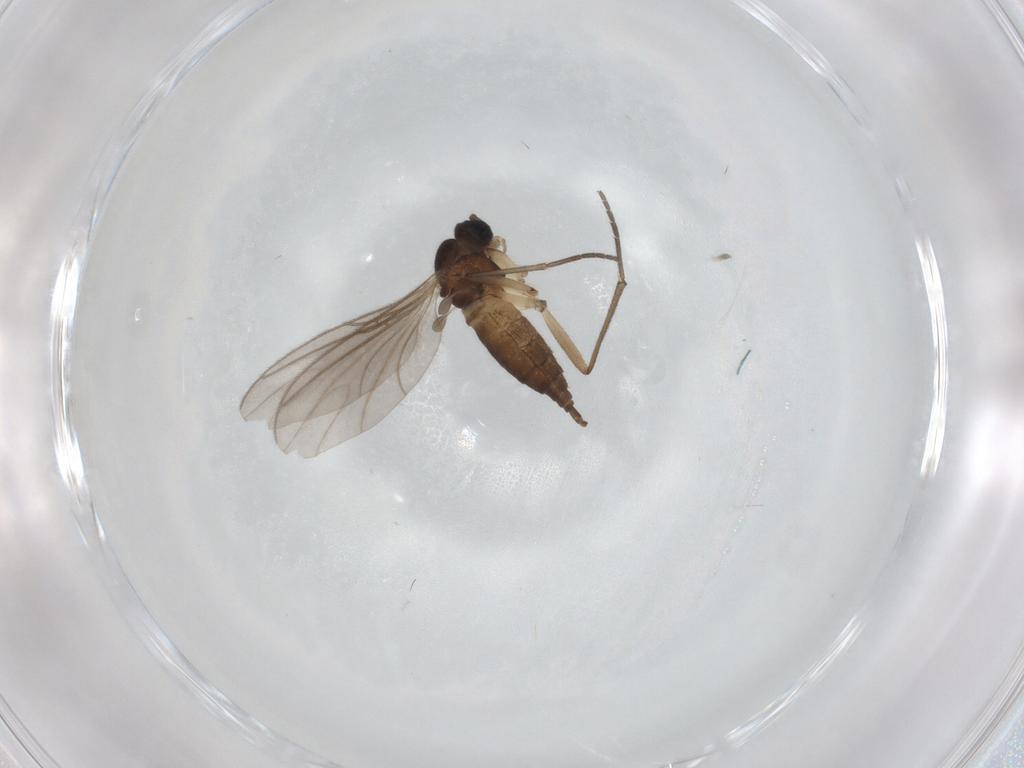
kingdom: Animalia
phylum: Arthropoda
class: Insecta
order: Diptera
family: Sciaridae
